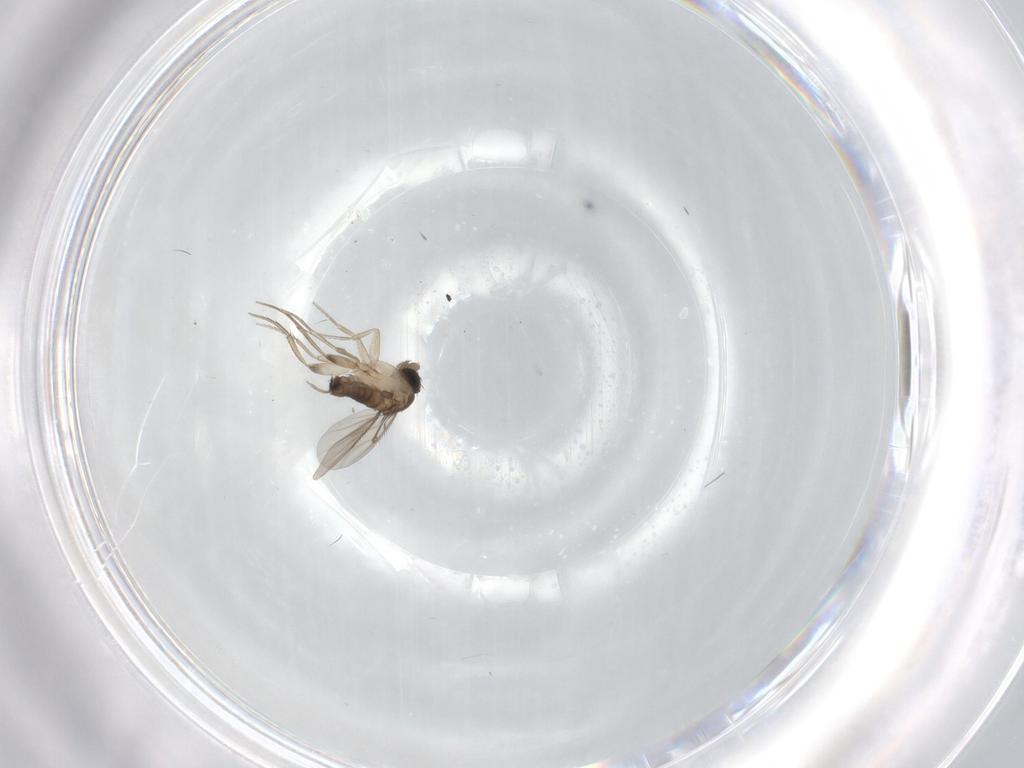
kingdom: Animalia
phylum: Arthropoda
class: Insecta
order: Diptera
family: Phoridae
